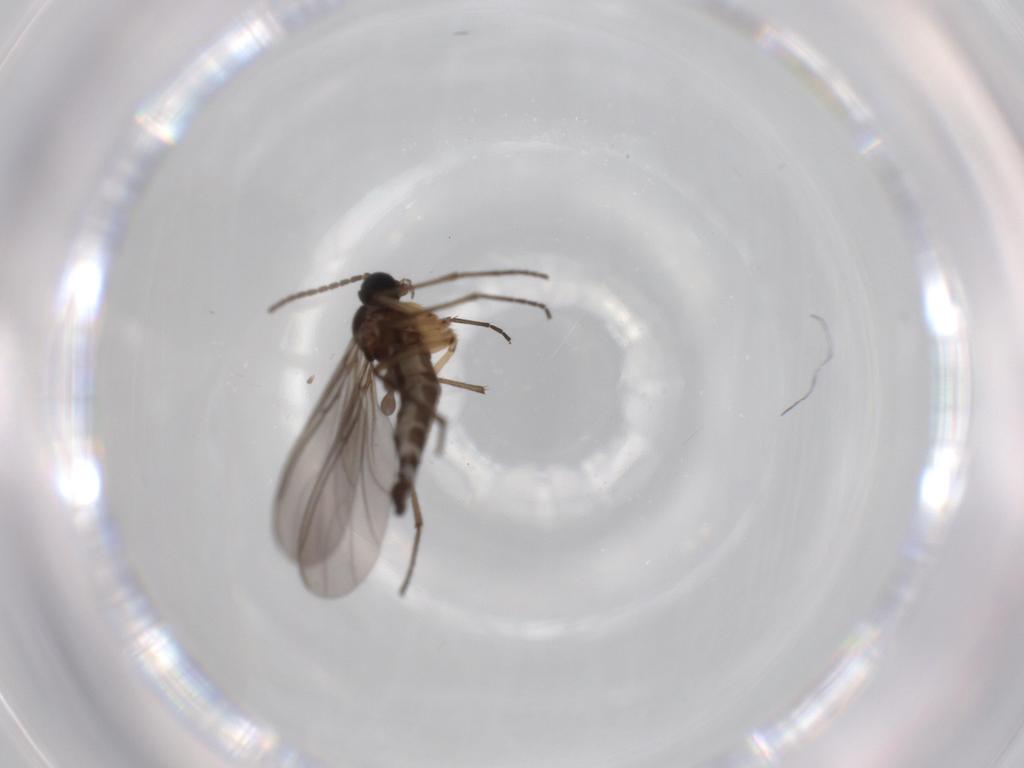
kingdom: Animalia
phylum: Arthropoda
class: Insecta
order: Diptera
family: Sciaridae
